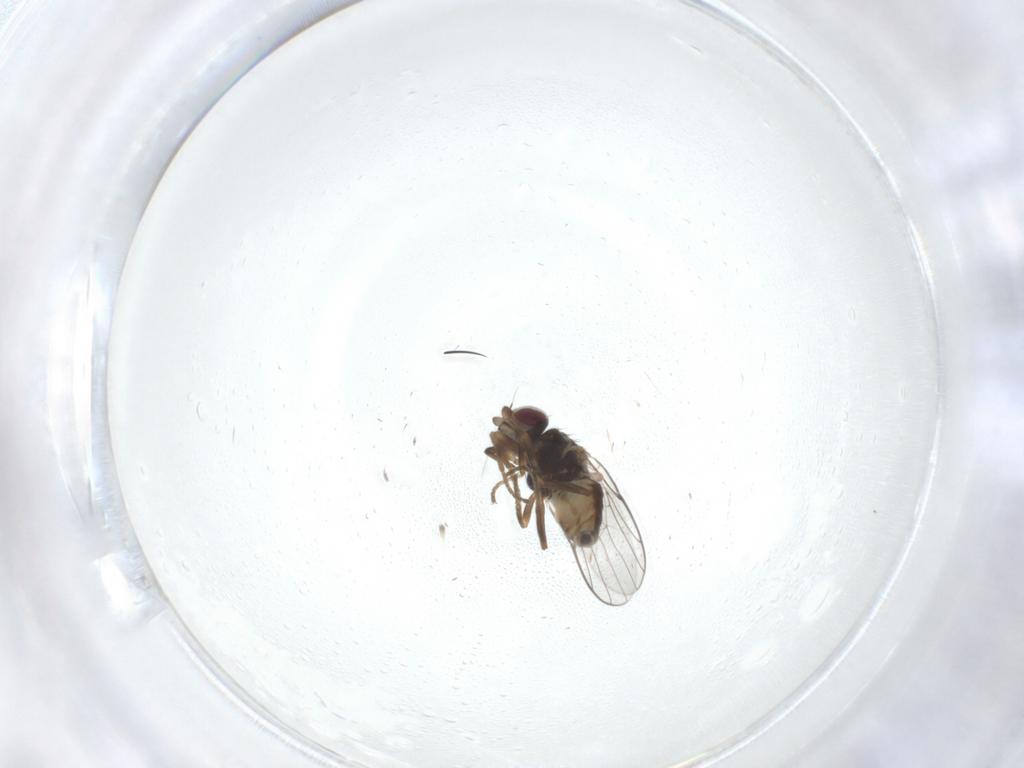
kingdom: Animalia
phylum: Arthropoda
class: Insecta
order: Diptera
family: Chloropidae
